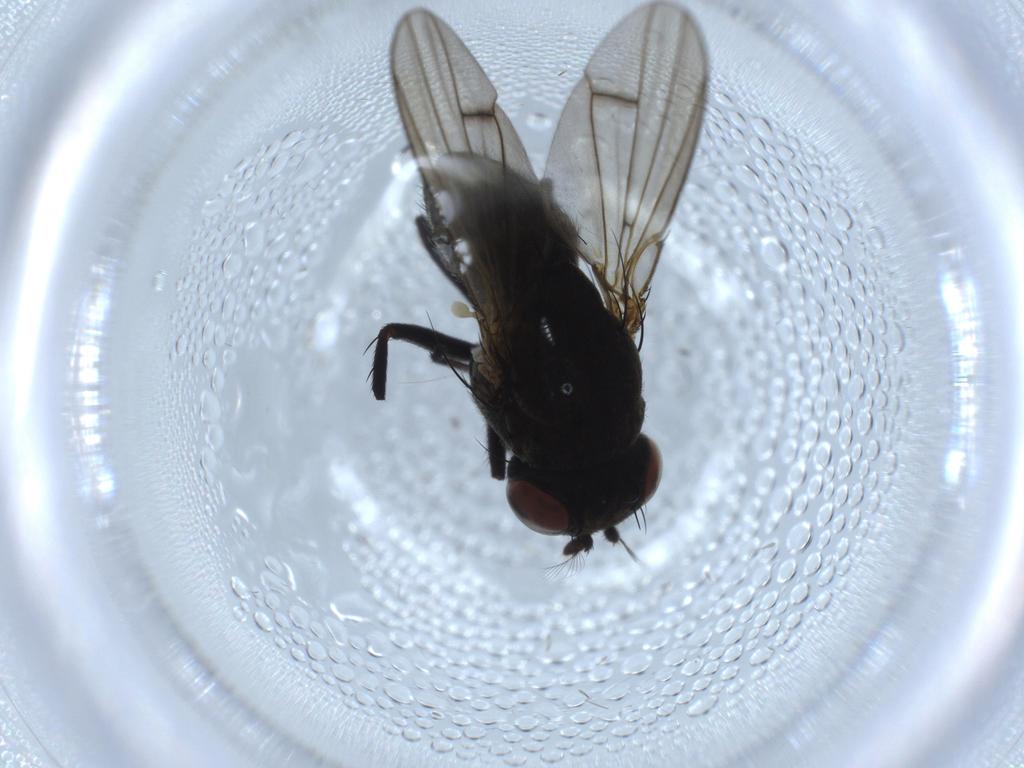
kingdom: Animalia
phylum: Arthropoda
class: Insecta
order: Diptera
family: Ephydridae
